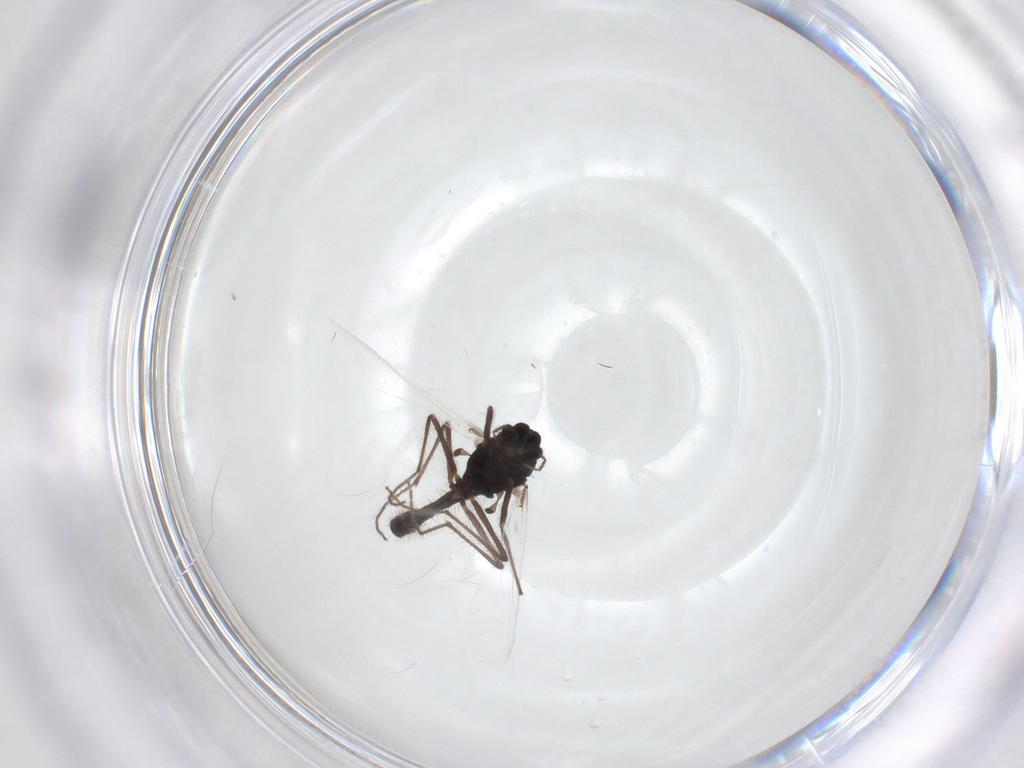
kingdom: Animalia
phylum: Arthropoda
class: Insecta
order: Diptera
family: Chironomidae
